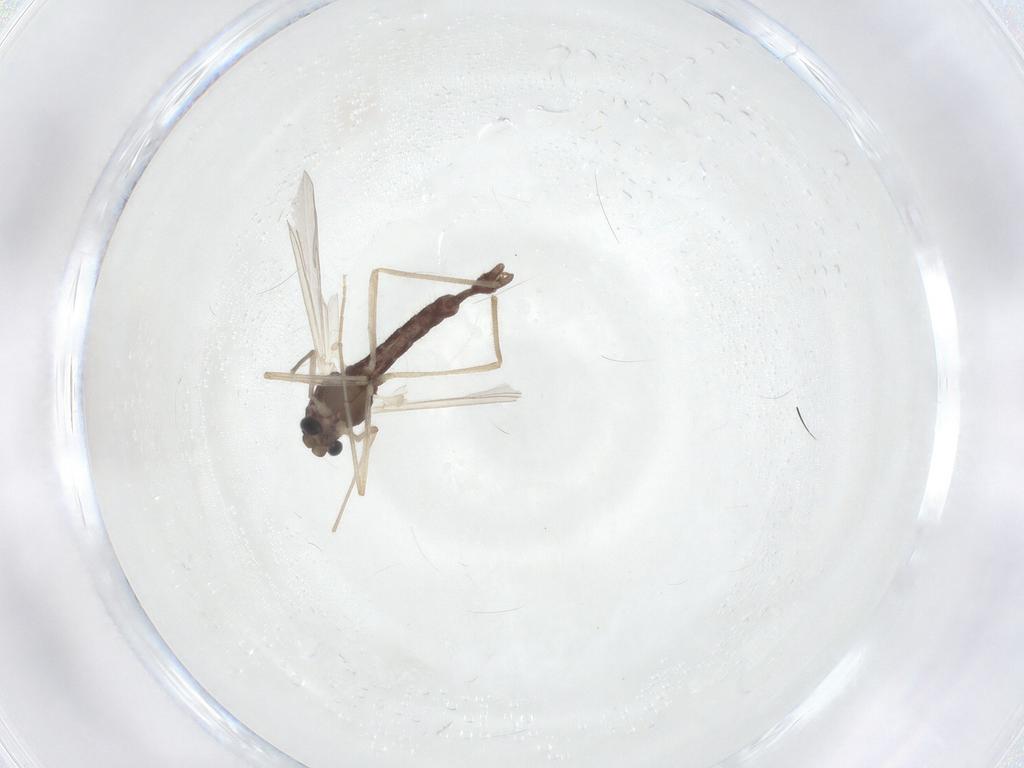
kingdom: Animalia
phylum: Arthropoda
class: Insecta
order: Diptera
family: Chironomidae
